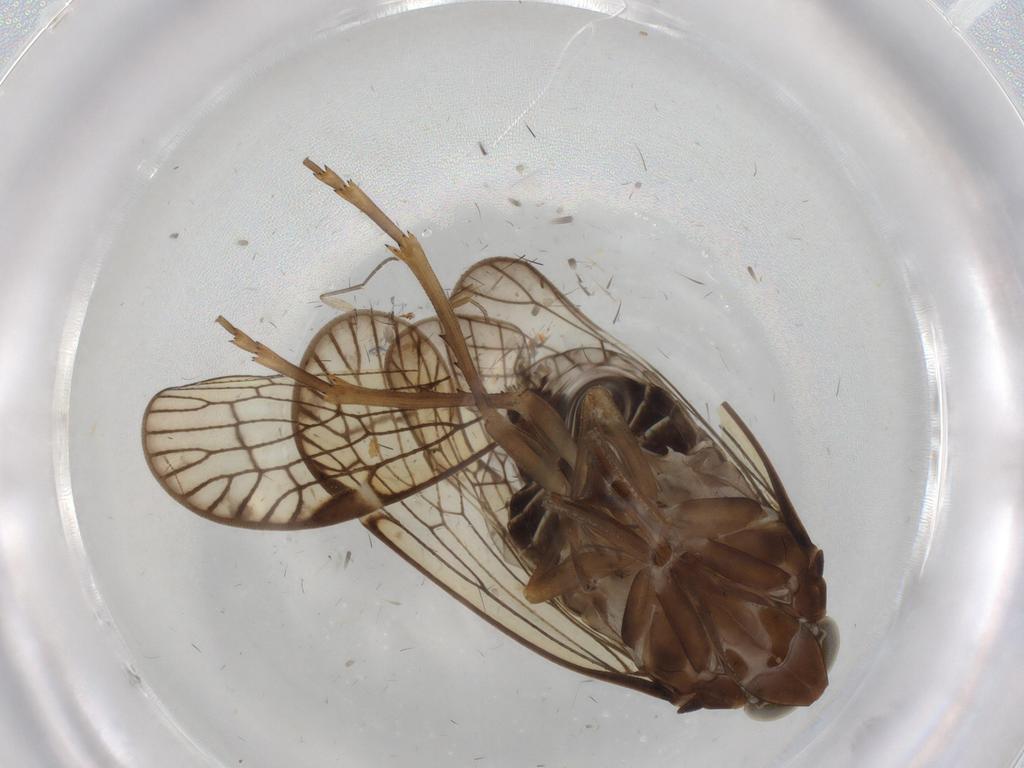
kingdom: Animalia
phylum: Arthropoda
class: Insecta
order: Hemiptera
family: Cixiidae
